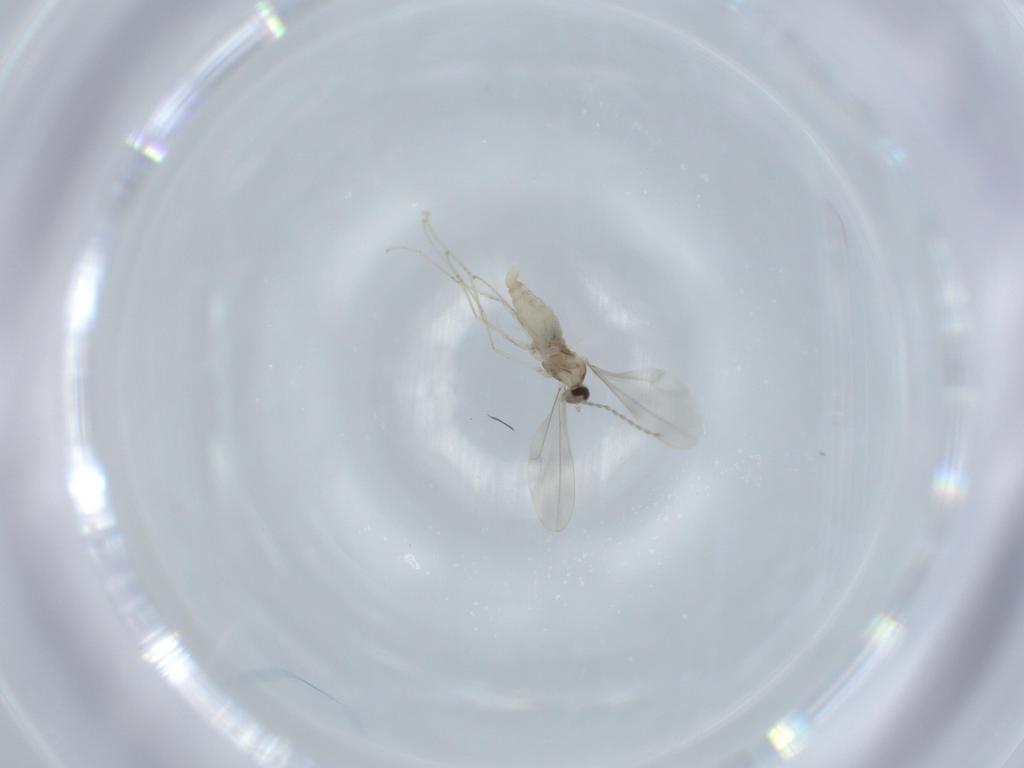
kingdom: Animalia
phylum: Arthropoda
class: Insecta
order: Diptera
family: Cecidomyiidae
